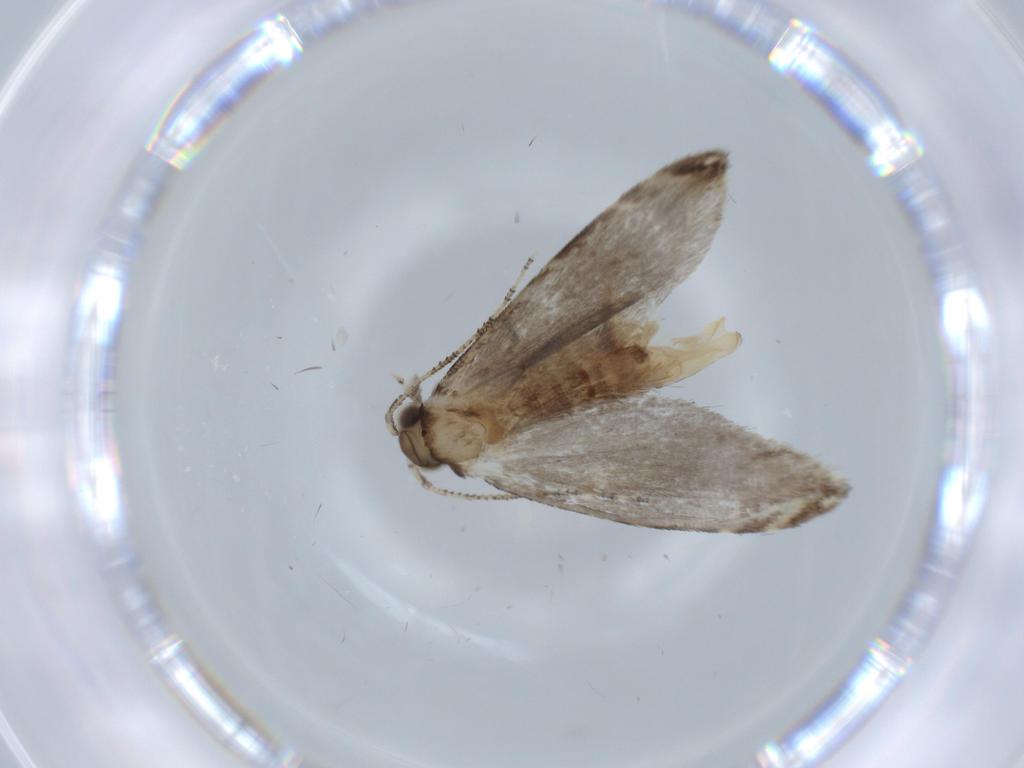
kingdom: Animalia
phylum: Arthropoda
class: Insecta
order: Lepidoptera
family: Tineidae
